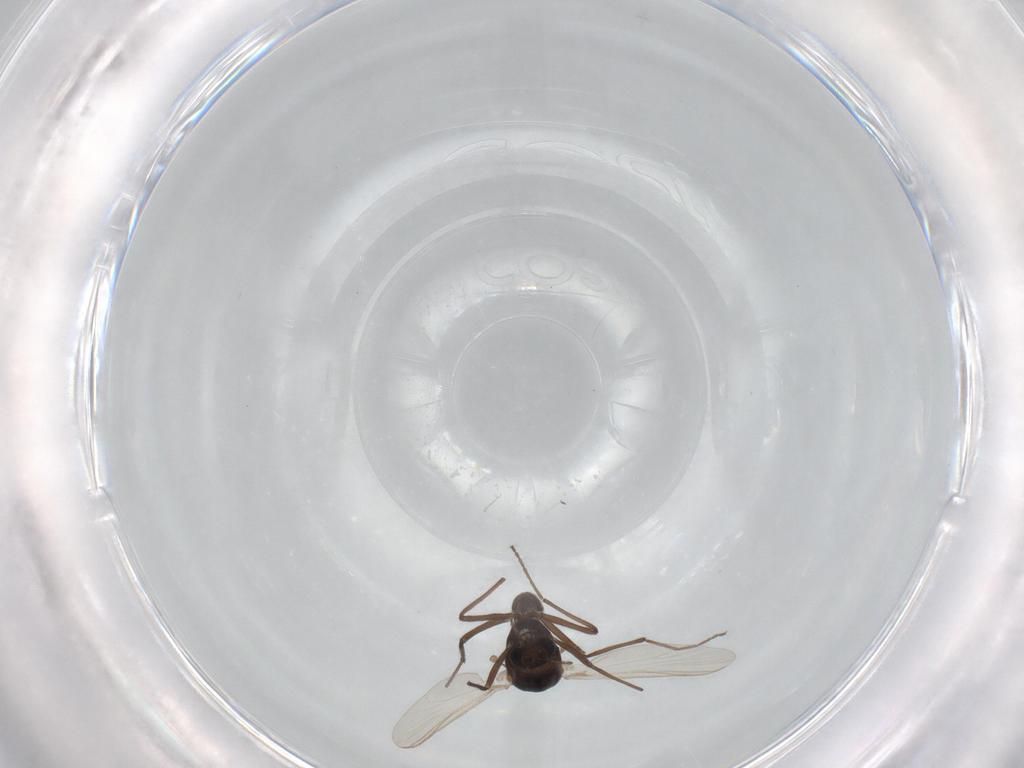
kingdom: Animalia
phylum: Arthropoda
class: Insecta
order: Diptera
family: Chironomidae
